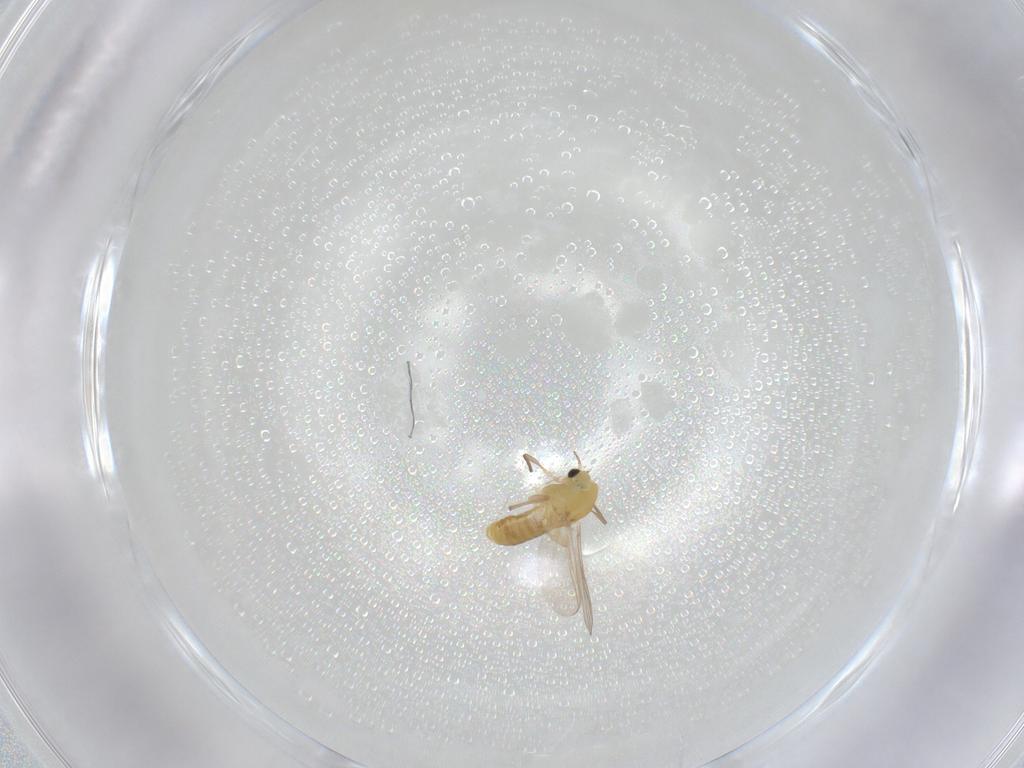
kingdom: Animalia
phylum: Arthropoda
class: Insecta
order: Diptera
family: Chironomidae
